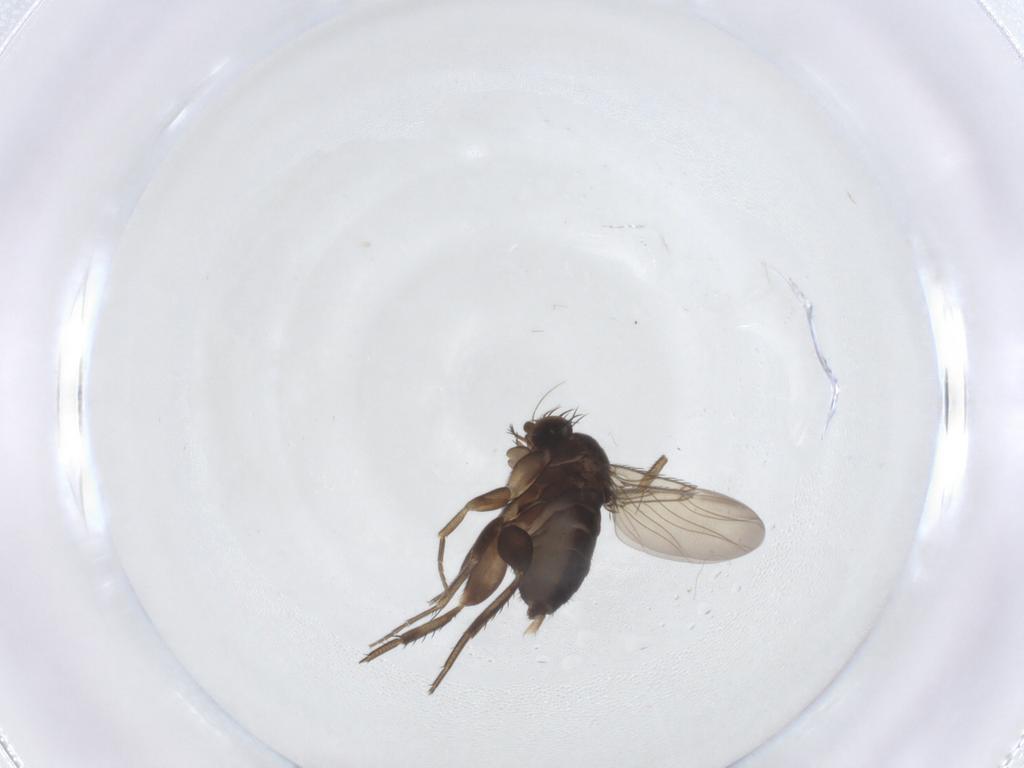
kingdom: Animalia
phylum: Arthropoda
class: Insecta
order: Diptera
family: Phoridae
